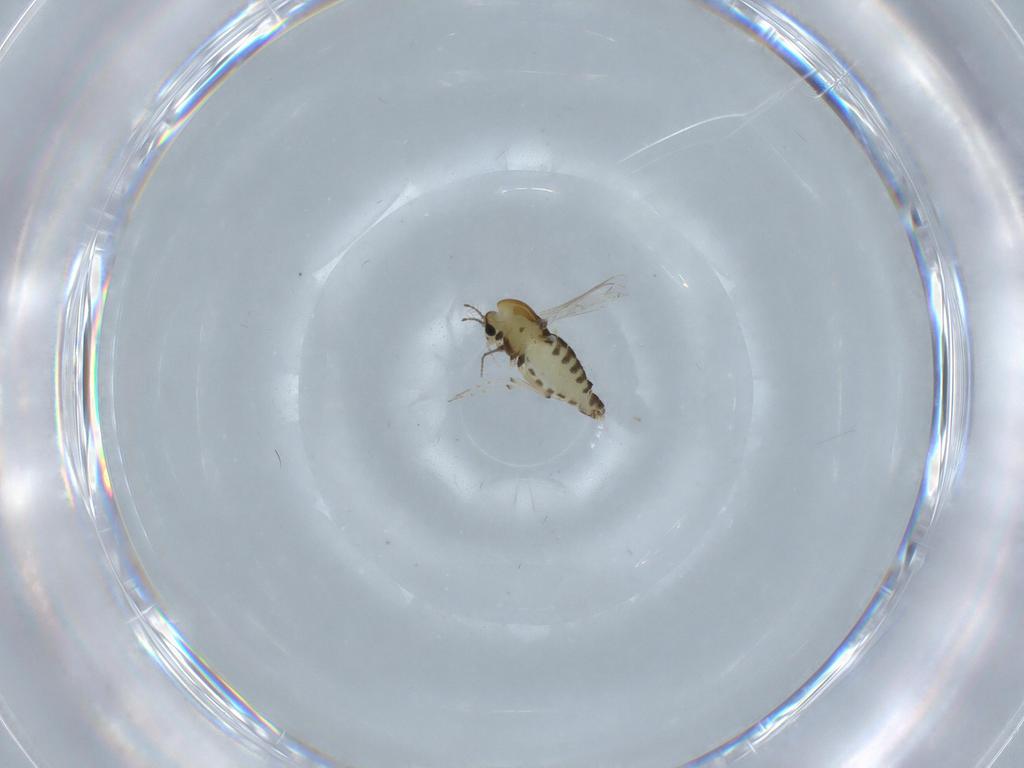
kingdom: Animalia
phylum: Arthropoda
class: Insecta
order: Diptera
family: Chironomidae
